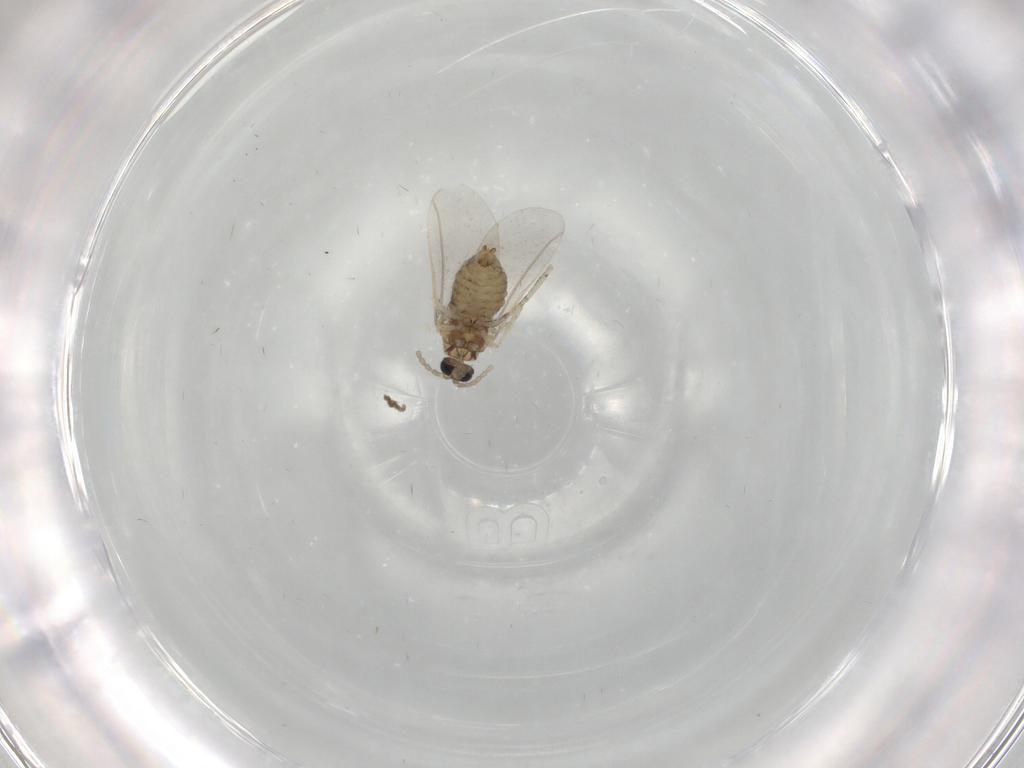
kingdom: Animalia
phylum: Arthropoda
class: Insecta
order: Diptera
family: Cecidomyiidae
